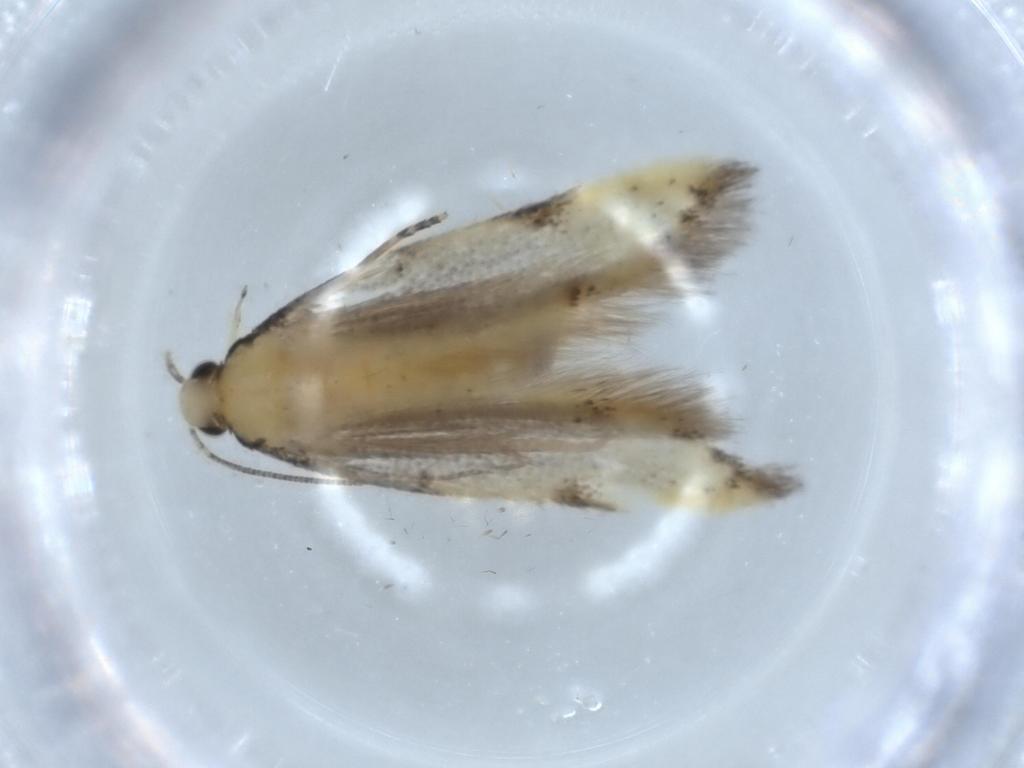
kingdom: Animalia
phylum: Arthropoda
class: Insecta
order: Lepidoptera
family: Autostichidae
